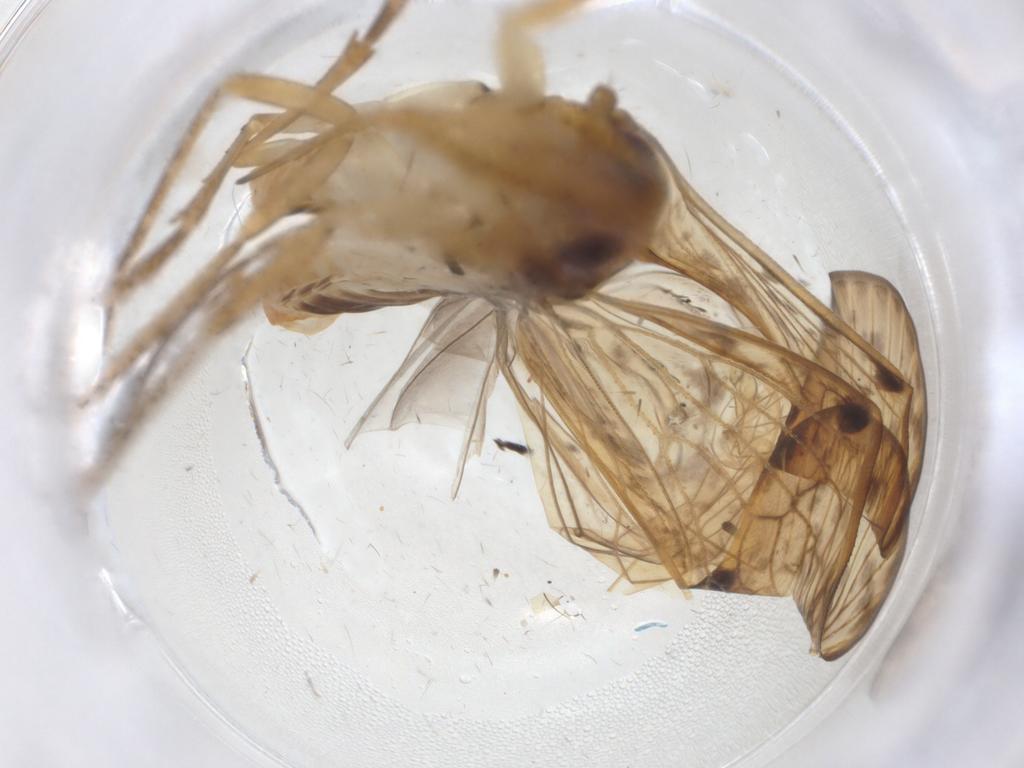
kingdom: Animalia
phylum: Arthropoda
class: Insecta
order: Hemiptera
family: Cixiidae
